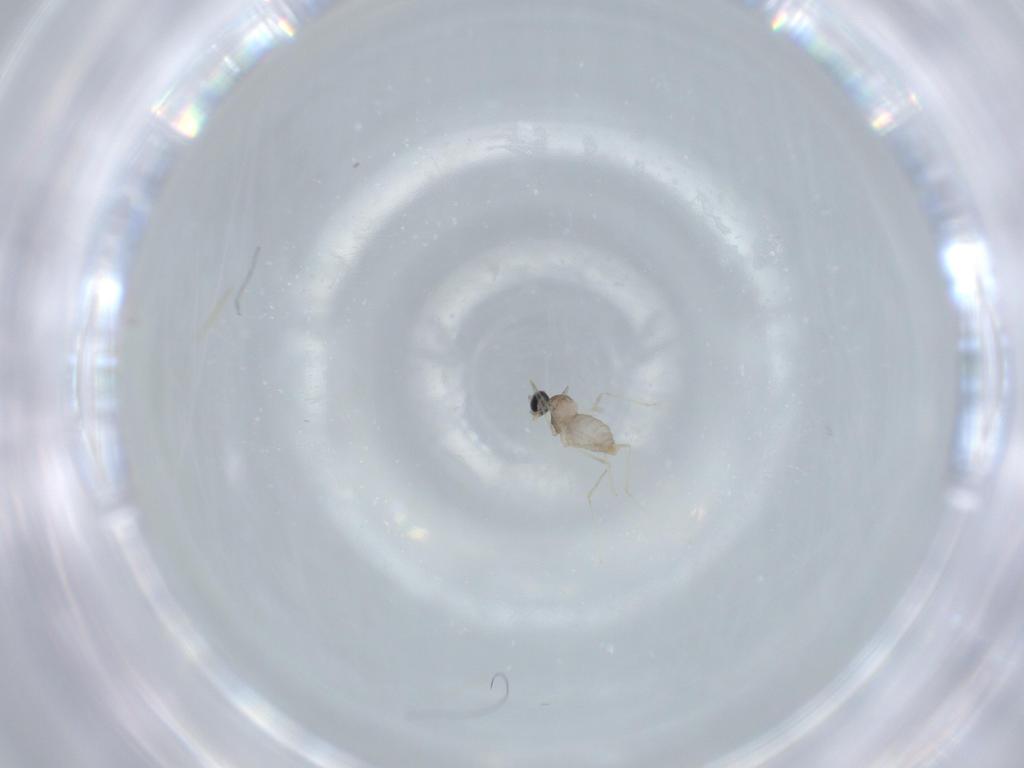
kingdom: Animalia
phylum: Arthropoda
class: Insecta
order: Diptera
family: Cecidomyiidae
